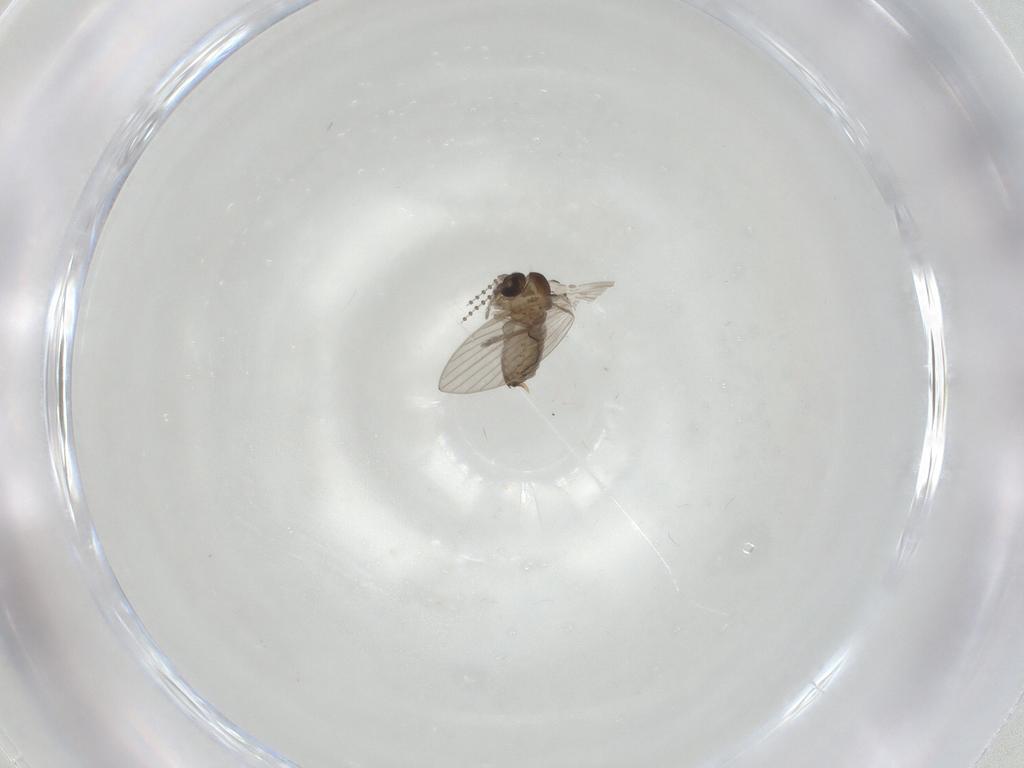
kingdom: Animalia
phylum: Arthropoda
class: Insecta
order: Diptera
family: Psychodidae
